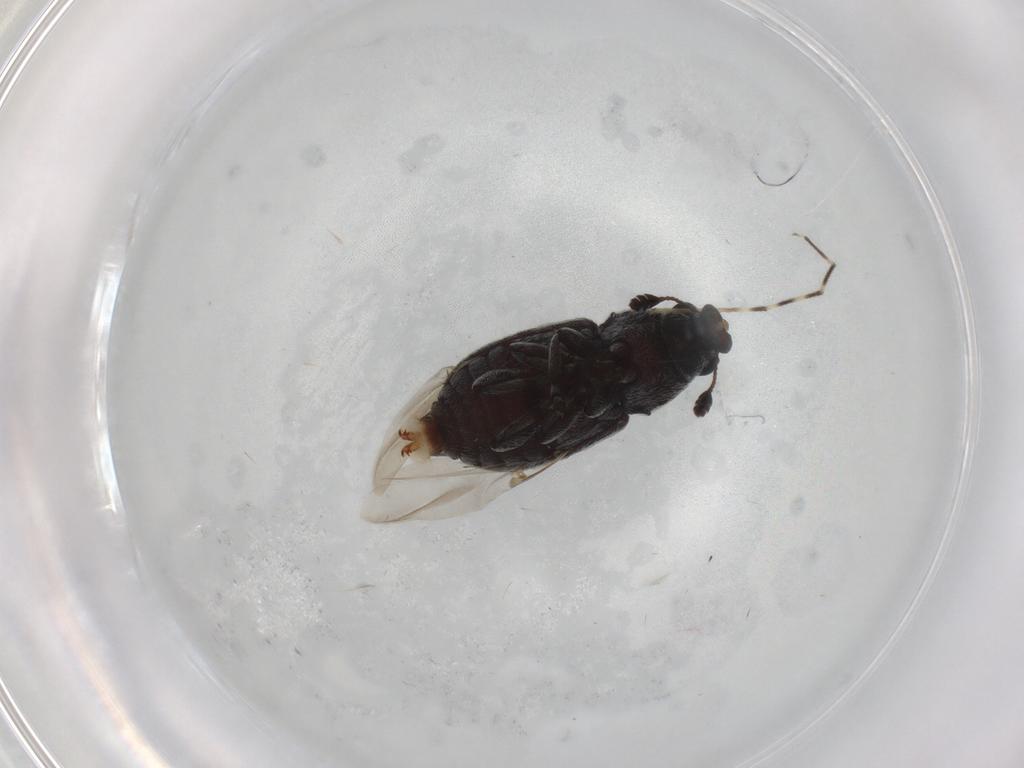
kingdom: Animalia
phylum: Arthropoda
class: Insecta
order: Coleoptera
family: Anthribidae
